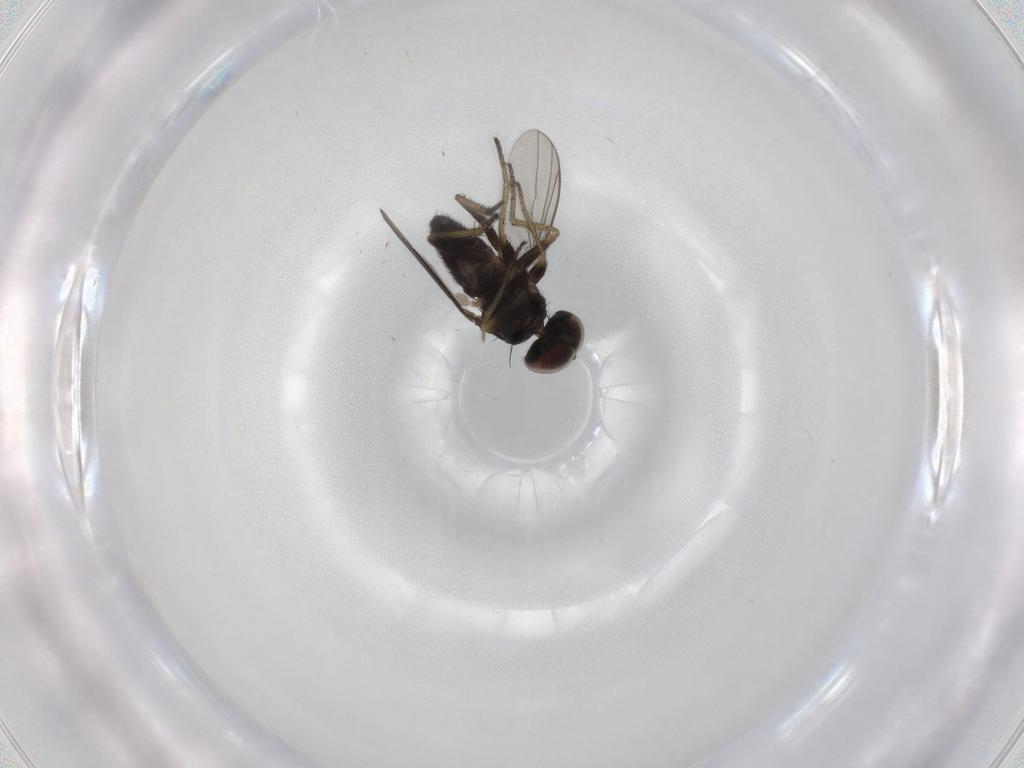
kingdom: Animalia
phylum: Arthropoda
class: Insecta
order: Diptera
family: Dolichopodidae
